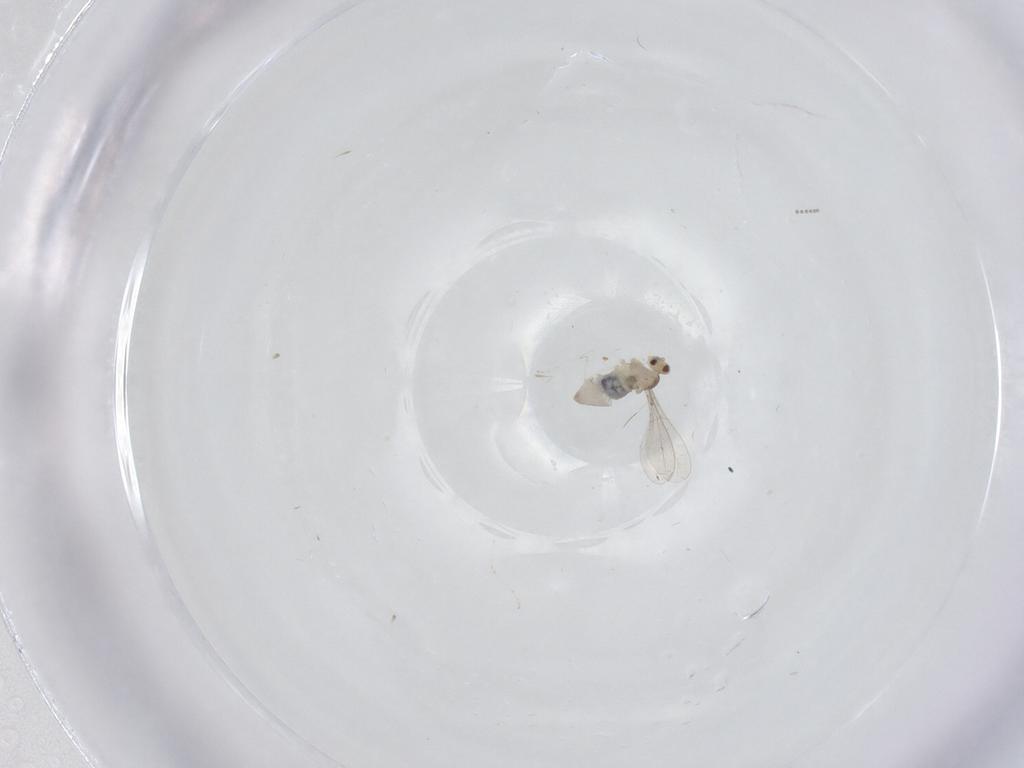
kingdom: Animalia
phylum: Arthropoda
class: Insecta
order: Diptera
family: Cecidomyiidae
